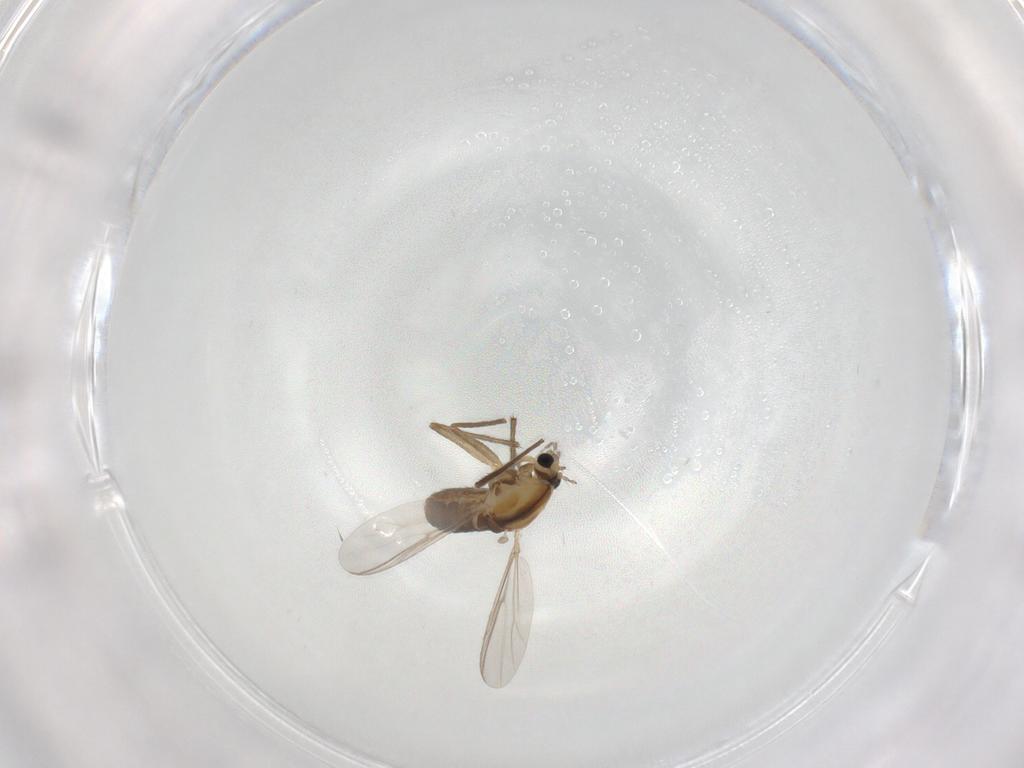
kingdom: Animalia
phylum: Arthropoda
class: Insecta
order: Diptera
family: Chironomidae
